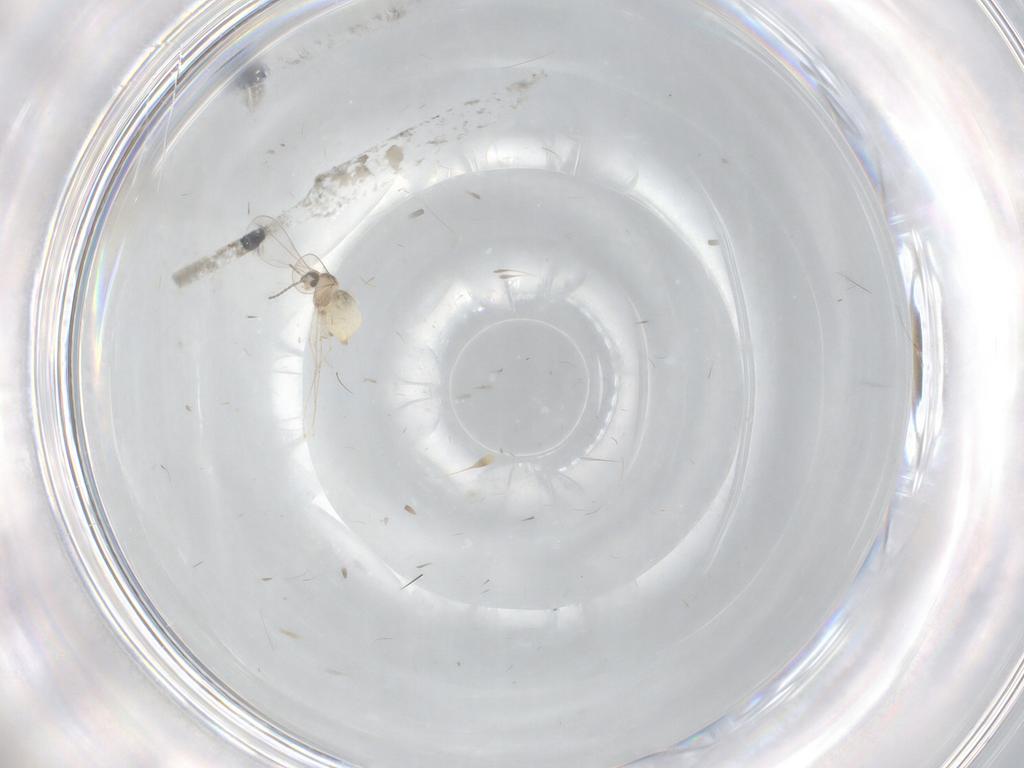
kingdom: Animalia
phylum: Arthropoda
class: Insecta
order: Diptera
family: Cecidomyiidae
